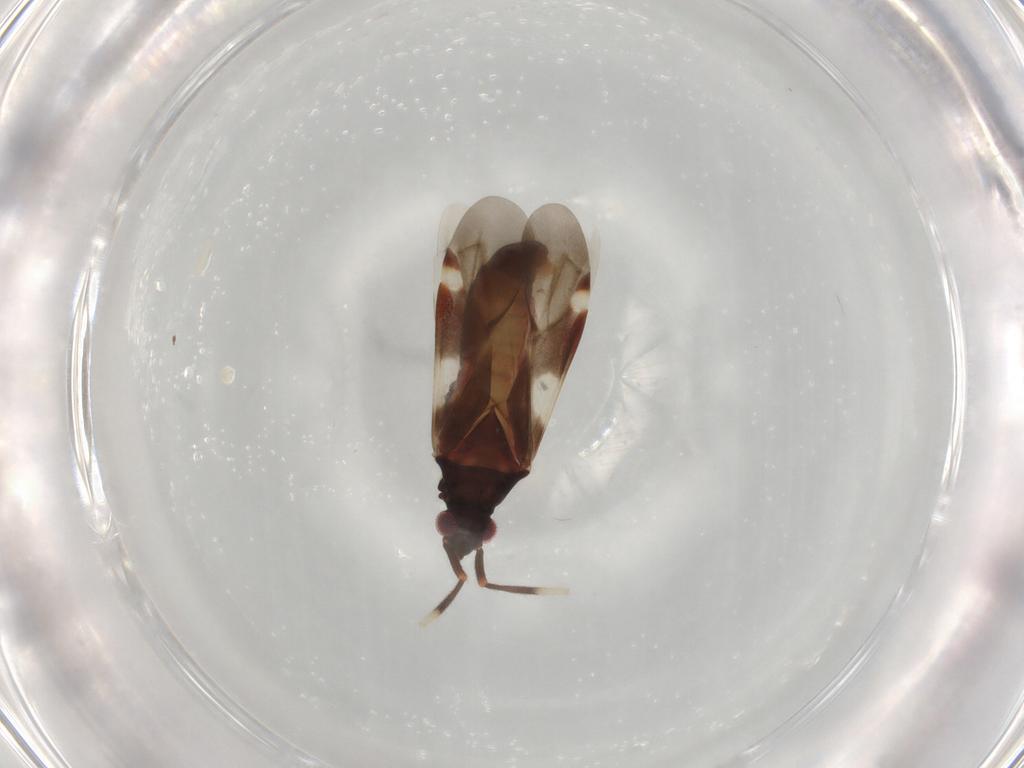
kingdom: Animalia
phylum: Arthropoda
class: Insecta
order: Hemiptera
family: Miridae
